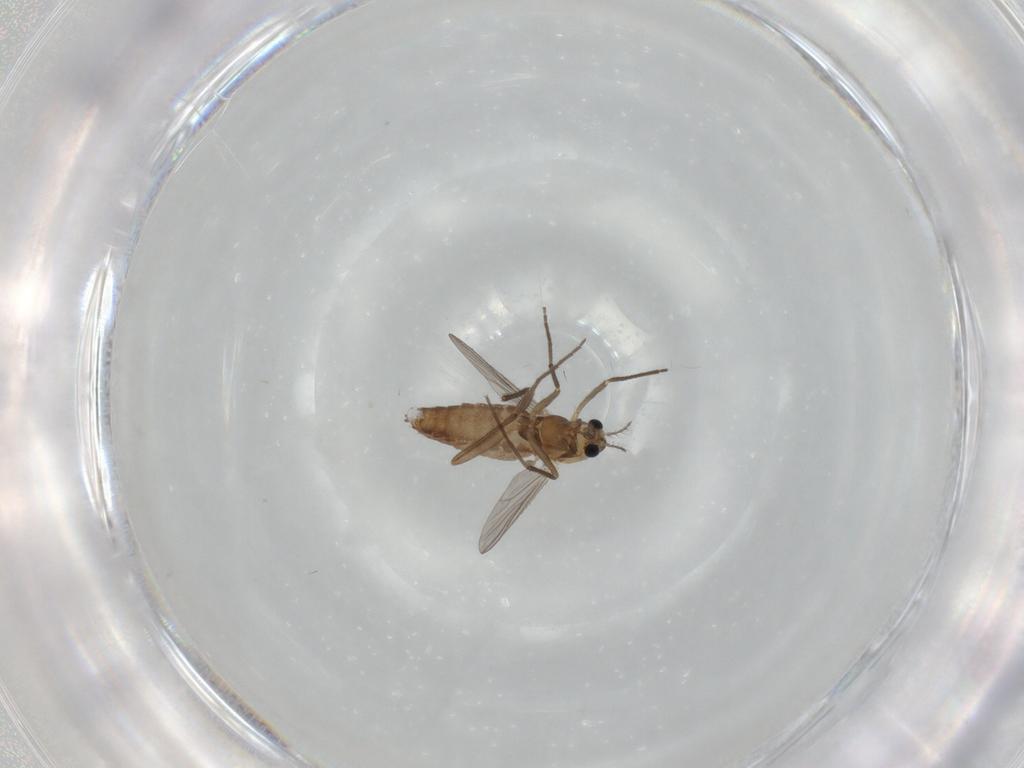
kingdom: Animalia
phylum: Arthropoda
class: Insecta
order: Diptera
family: Chironomidae
